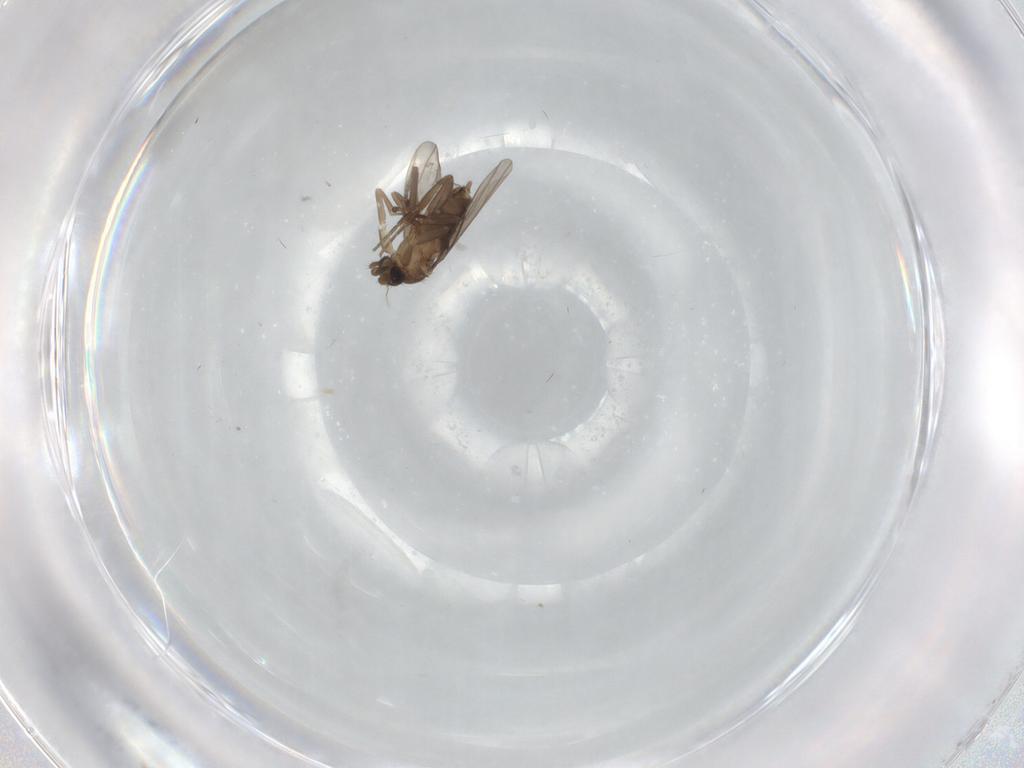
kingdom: Animalia
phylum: Arthropoda
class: Insecta
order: Diptera
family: Phoridae
